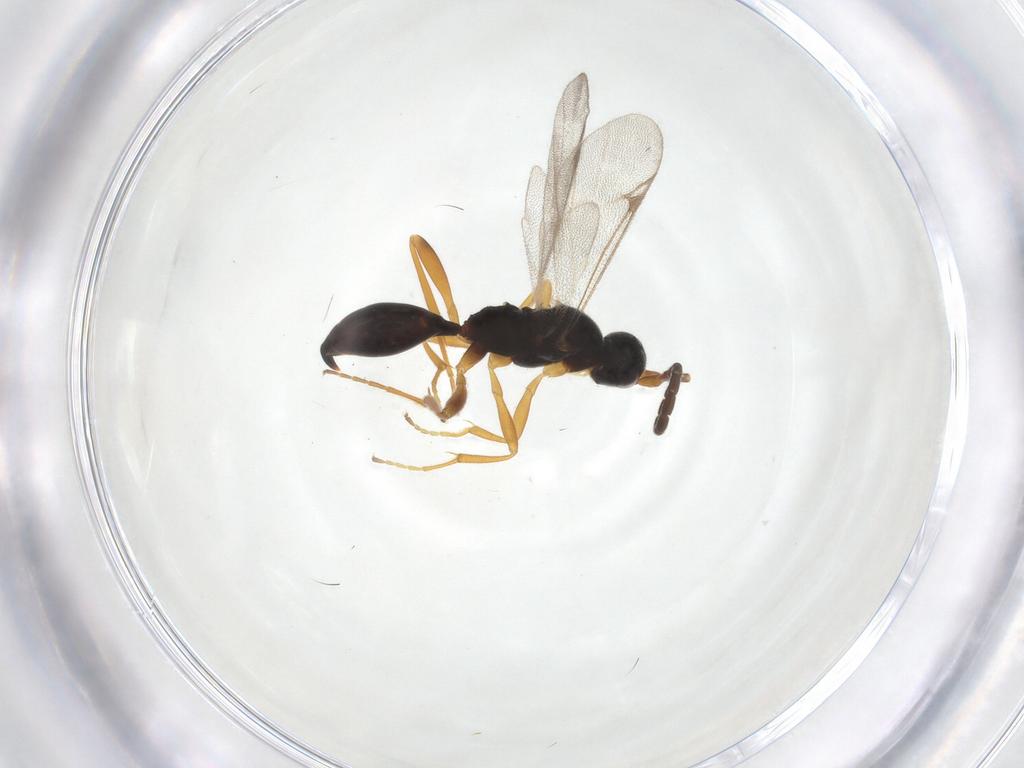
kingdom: Animalia
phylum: Arthropoda
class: Insecta
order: Hymenoptera
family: Proctotrupidae
